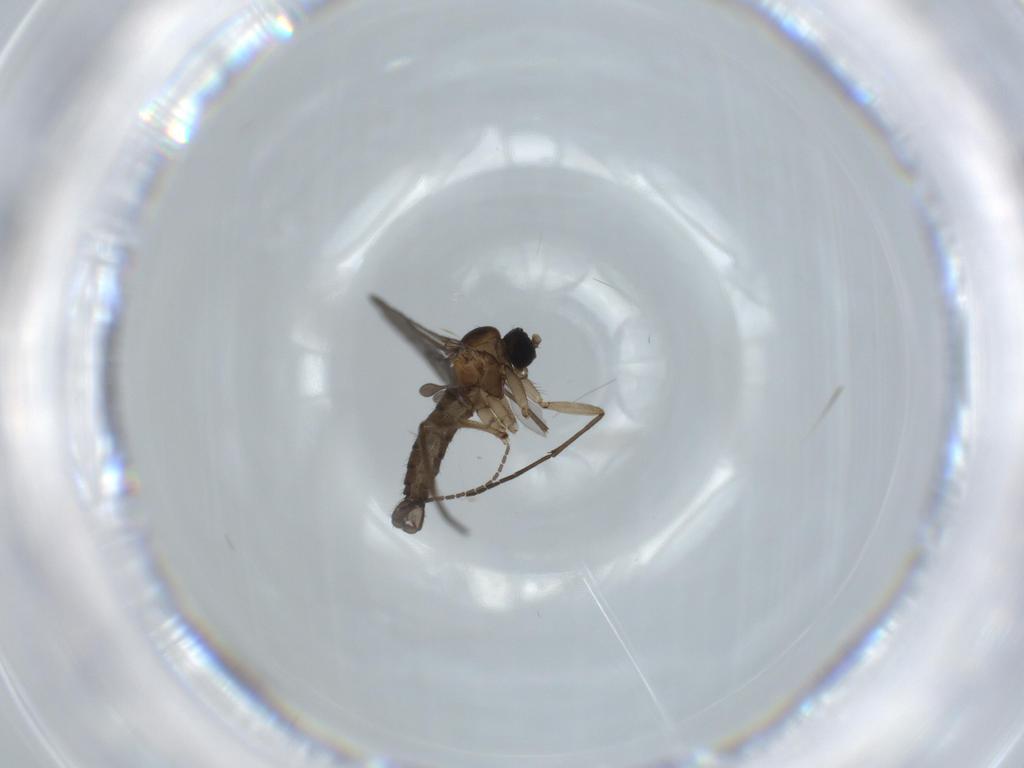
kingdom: Animalia
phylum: Arthropoda
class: Insecta
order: Diptera
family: Sciaridae
